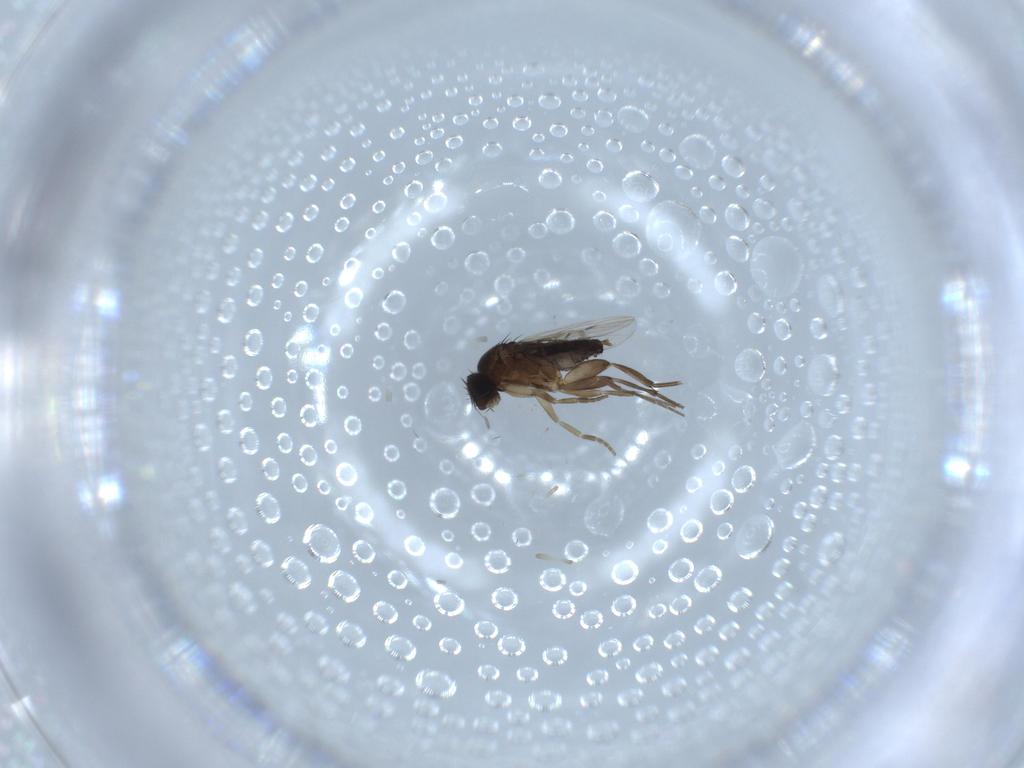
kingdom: Animalia
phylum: Arthropoda
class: Insecta
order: Diptera
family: Phoridae
